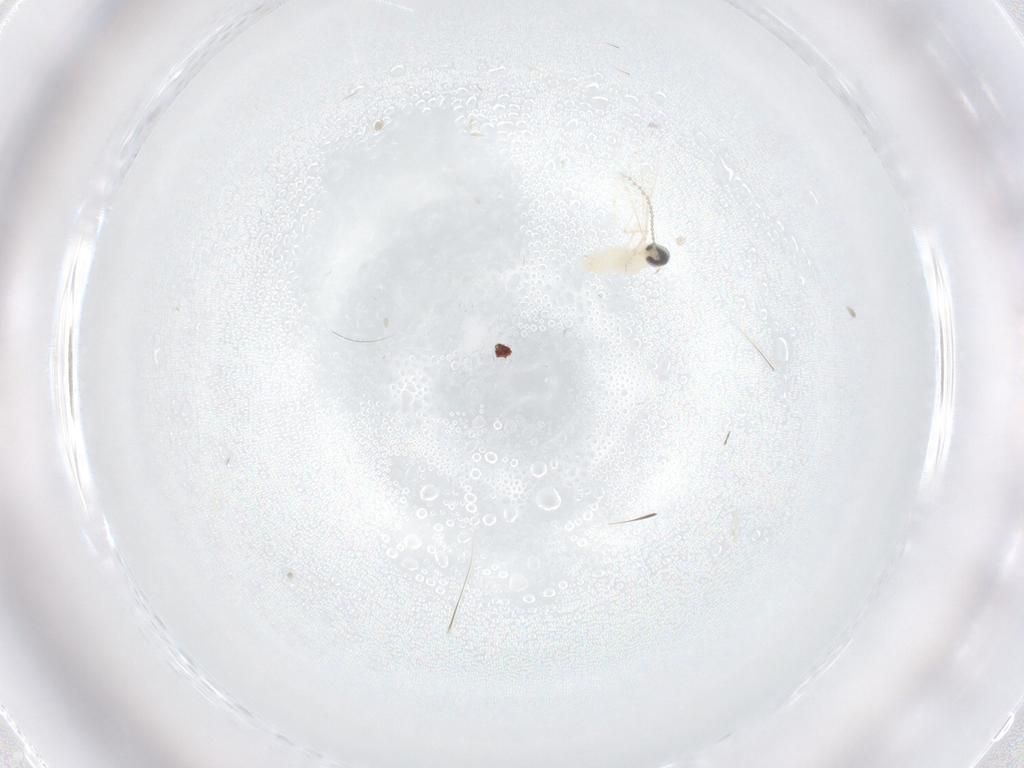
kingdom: Animalia
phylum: Arthropoda
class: Insecta
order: Diptera
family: Cecidomyiidae
